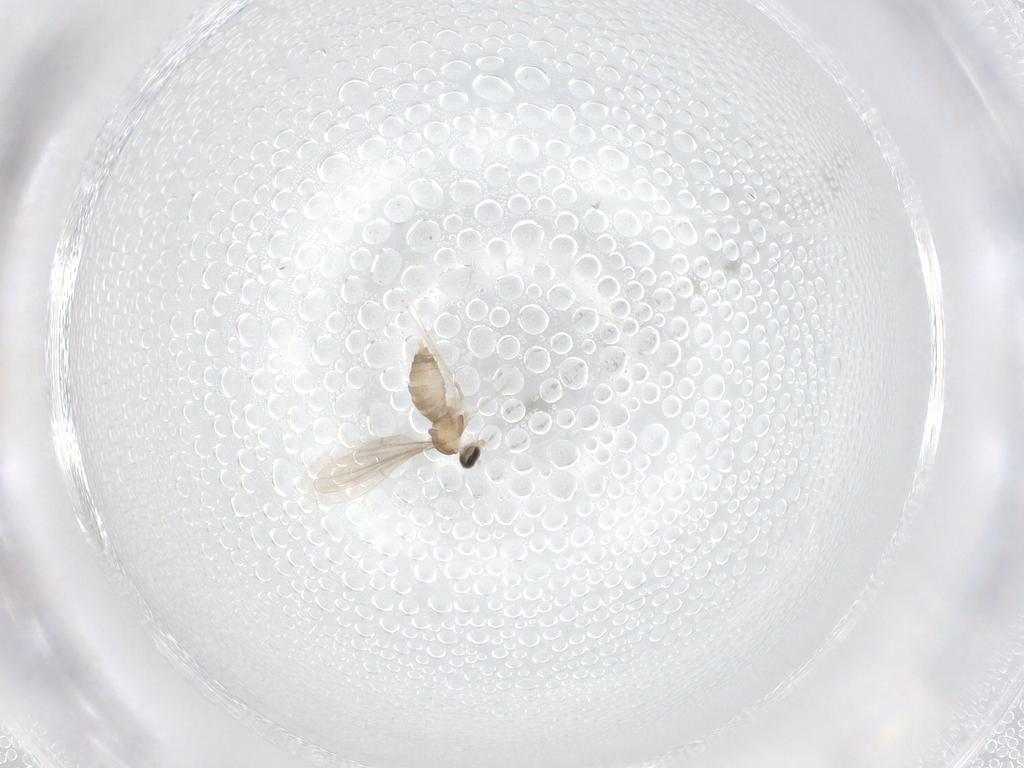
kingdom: Animalia
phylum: Arthropoda
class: Insecta
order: Diptera
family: Cecidomyiidae
